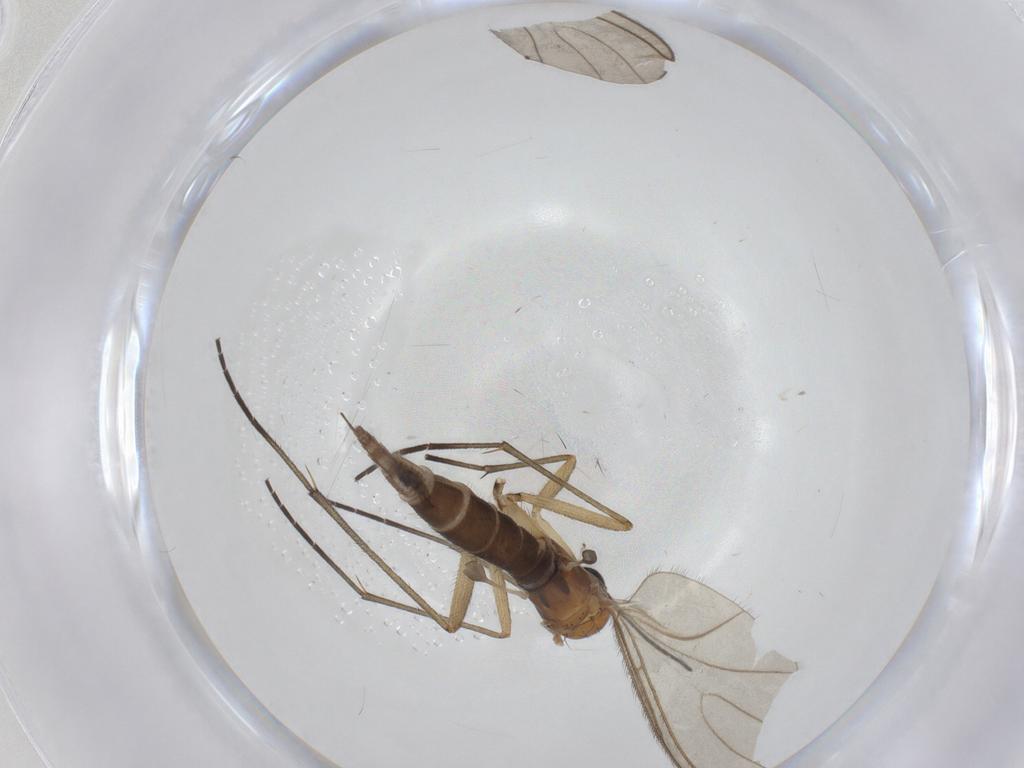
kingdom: Animalia
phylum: Arthropoda
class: Insecta
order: Diptera
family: Sciaridae
